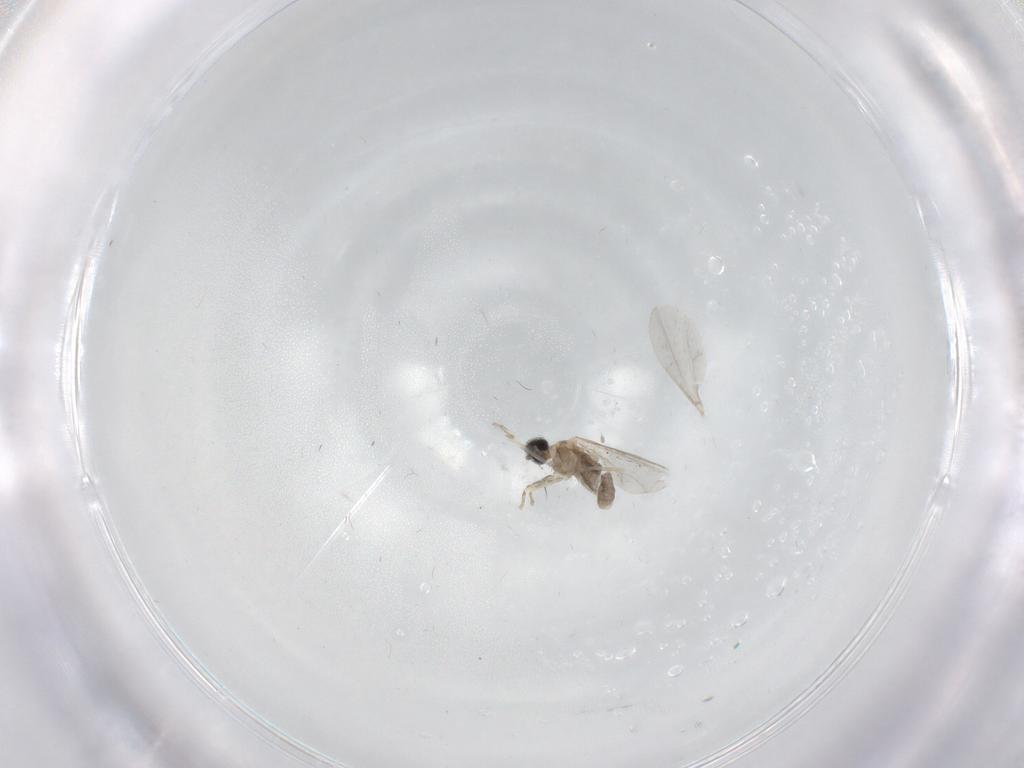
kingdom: Animalia
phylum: Arthropoda
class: Insecta
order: Diptera
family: Cecidomyiidae
